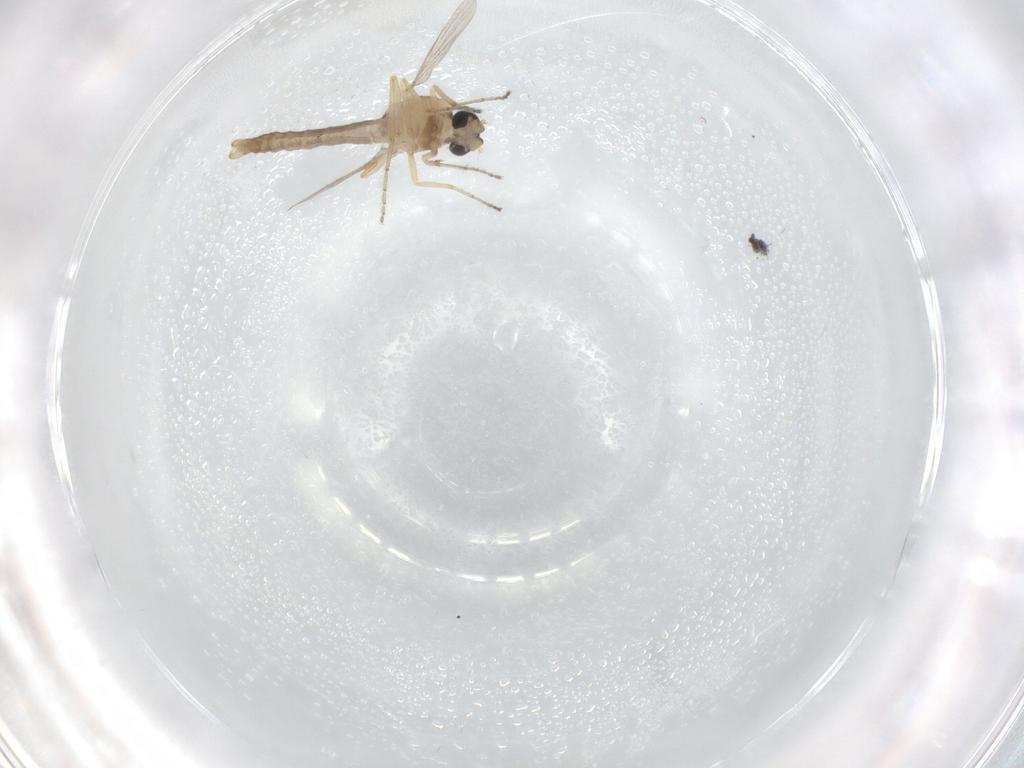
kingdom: Animalia
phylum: Arthropoda
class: Insecta
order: Diptera
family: Ceratopogonidae
